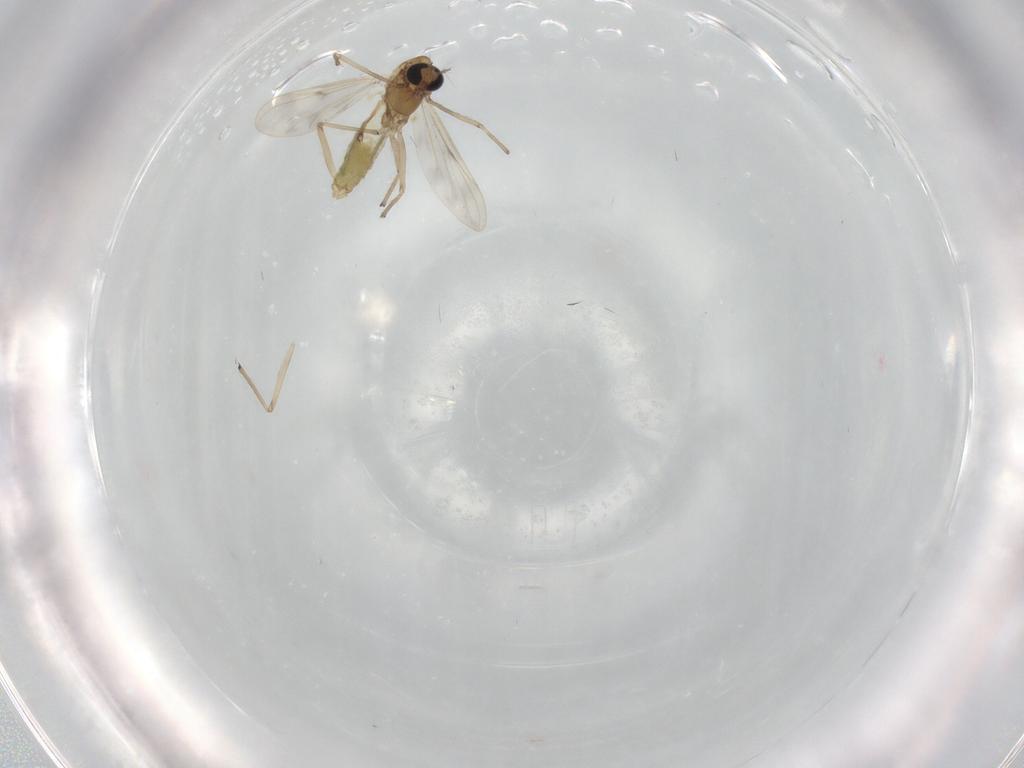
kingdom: Animalia
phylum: Arthropoda
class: Insecta
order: Diptera
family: Chironomidae
